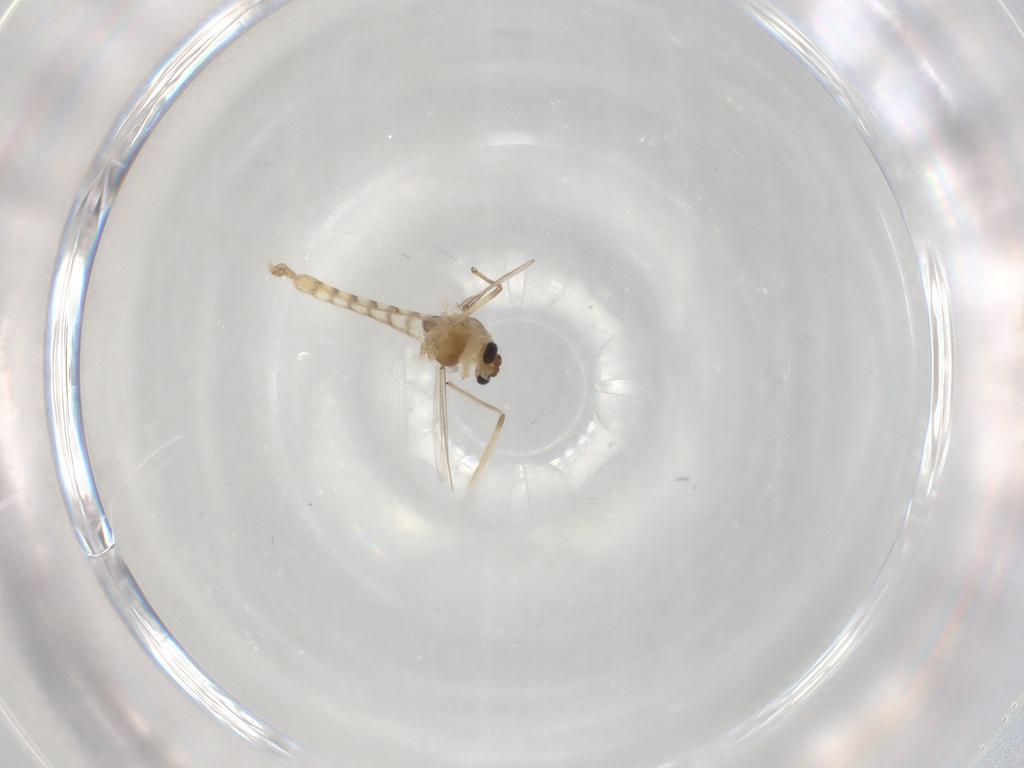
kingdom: Animalia
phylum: Arthropoda
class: Insecta
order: Diptera
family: Chironomidae
